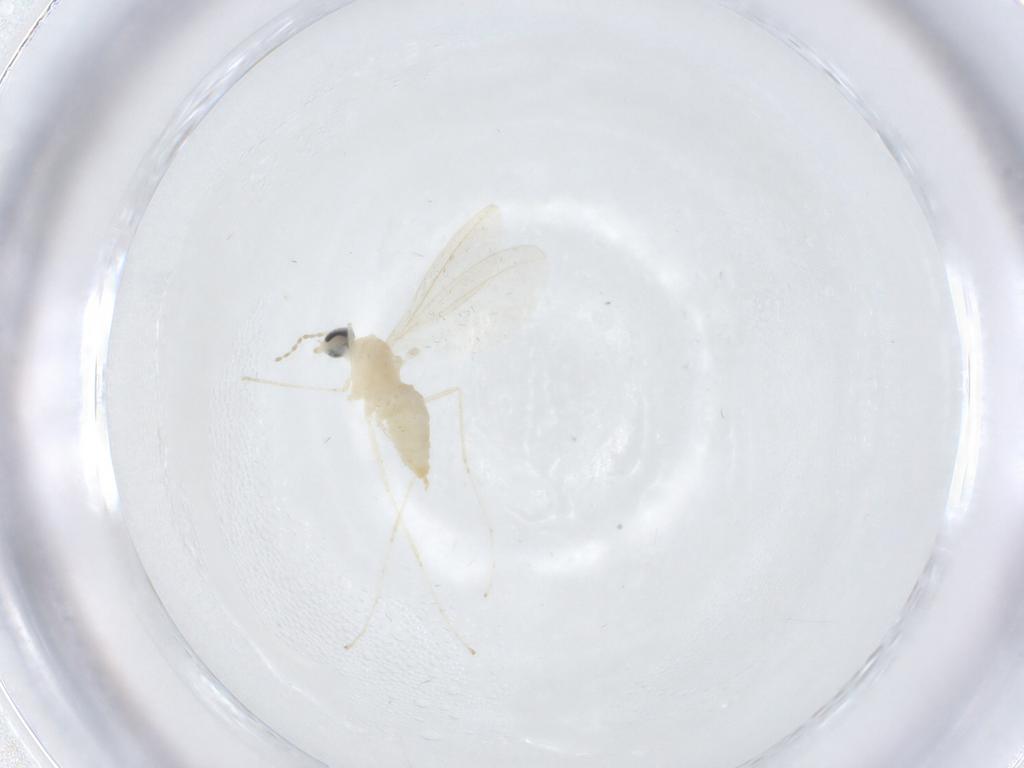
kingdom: Animalia
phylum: Arthropoda
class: Insecta
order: Diptera
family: Cecidomyiidae
